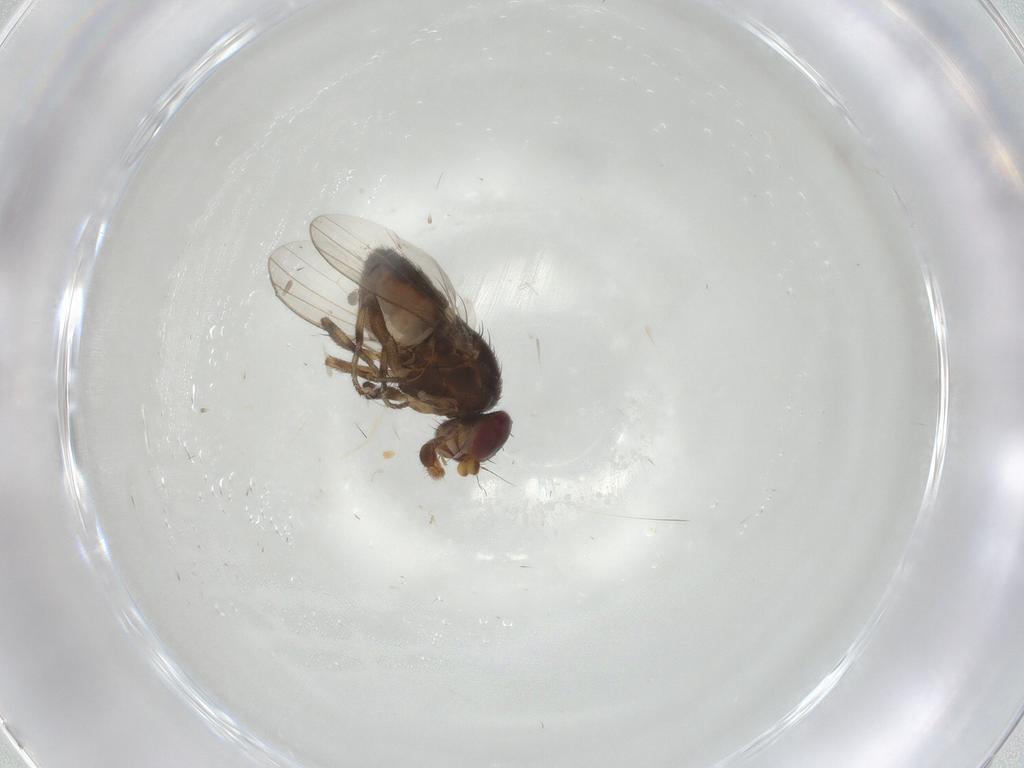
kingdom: Animalia
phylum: Arthropoda
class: Insecta
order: Diptera
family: Heleomyzidae
